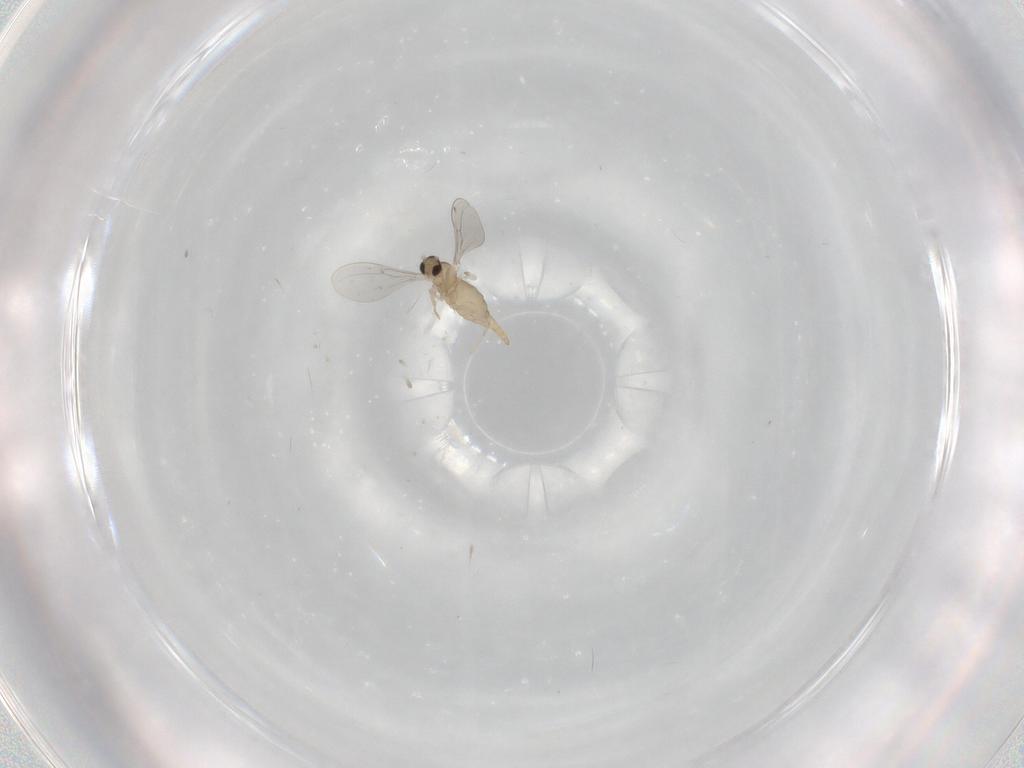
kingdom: Animalia
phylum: Arthropoda
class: Insecta
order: Diptera
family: Cecidomyiidae
